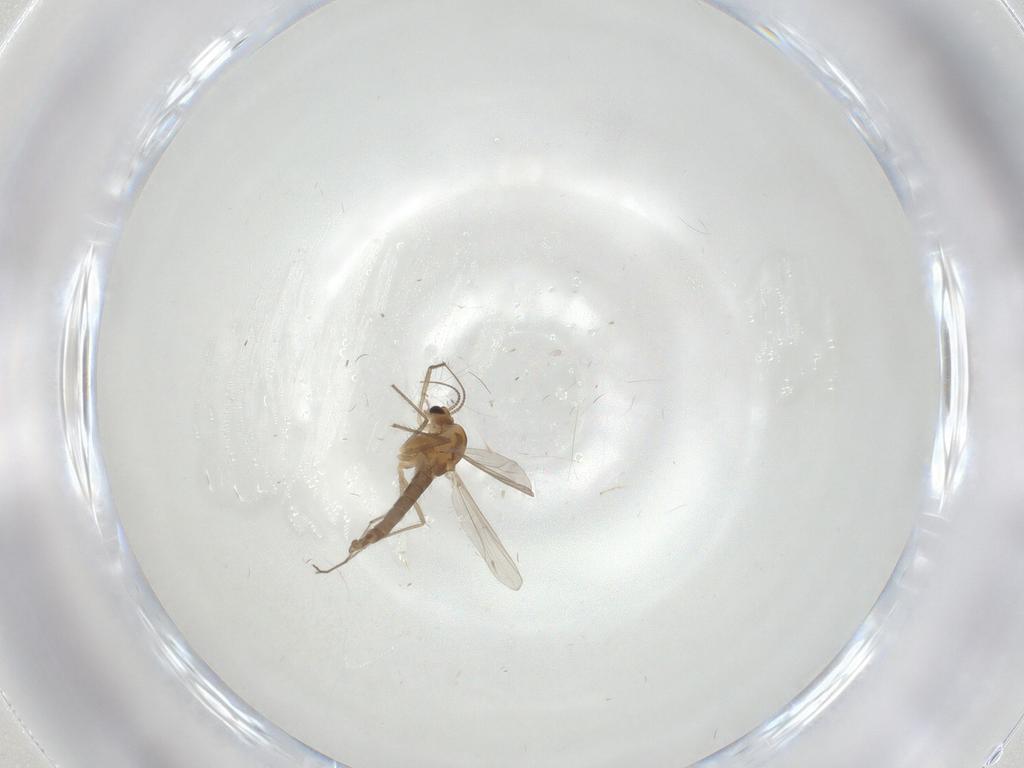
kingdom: Animalia
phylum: Arthropoda
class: Insecta
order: Diptera
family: Chironomidae
